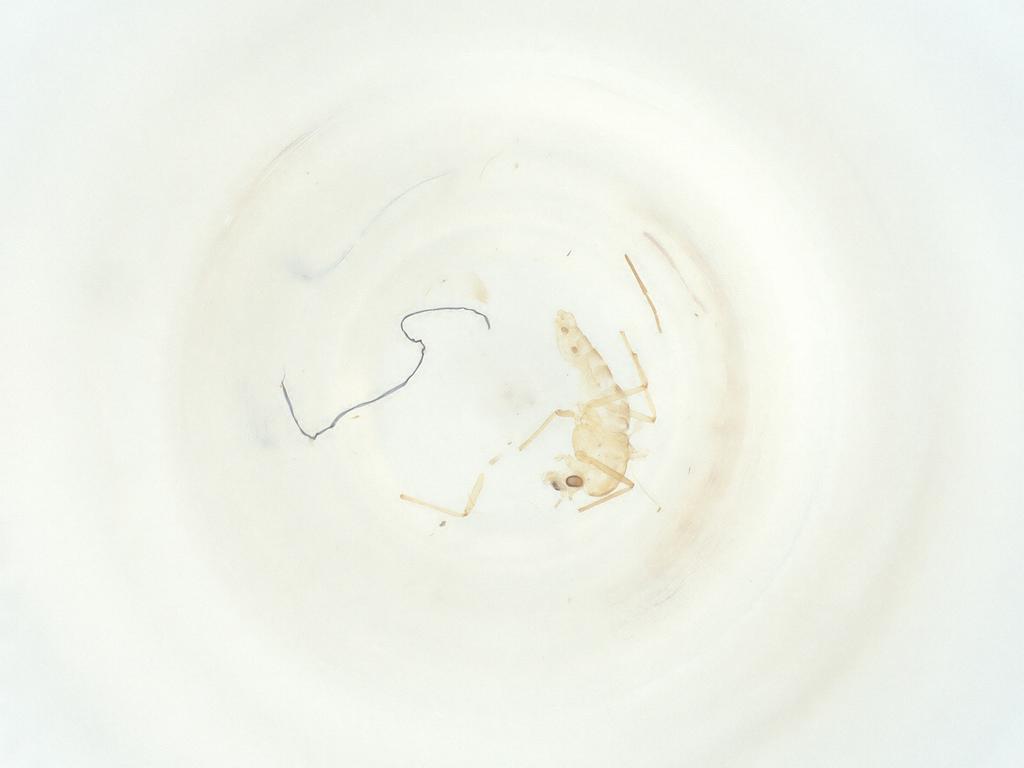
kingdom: Animalia
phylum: Arthropoda
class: Insecta
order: Diptera
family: Chironomidae
